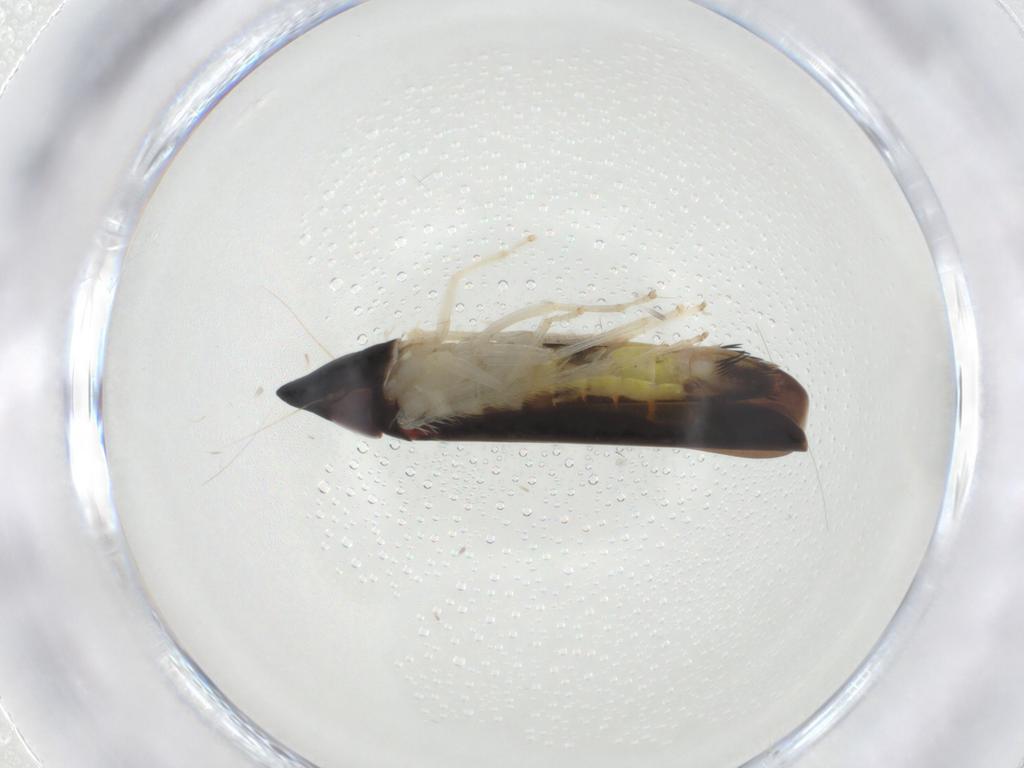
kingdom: Animalia
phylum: Arthropoda
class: Insecta
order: Hemiptera
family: Cicadellidae
